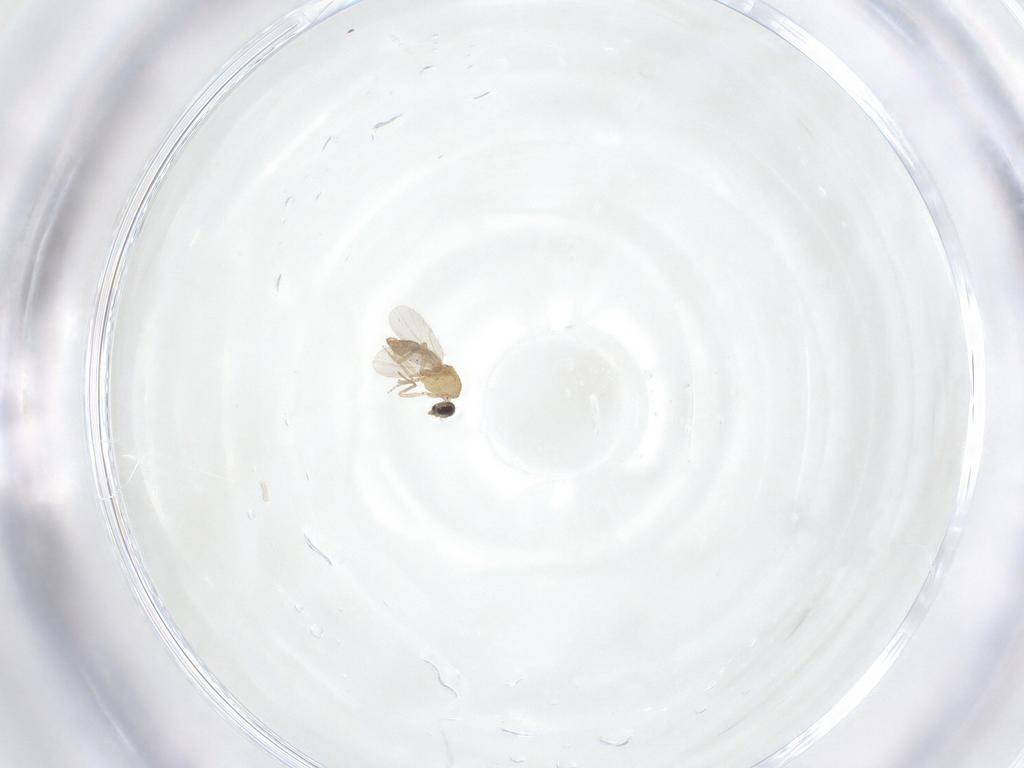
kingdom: Animalia
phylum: Arthropoda
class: Insecta
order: Diptera
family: Ceratopogonidae
